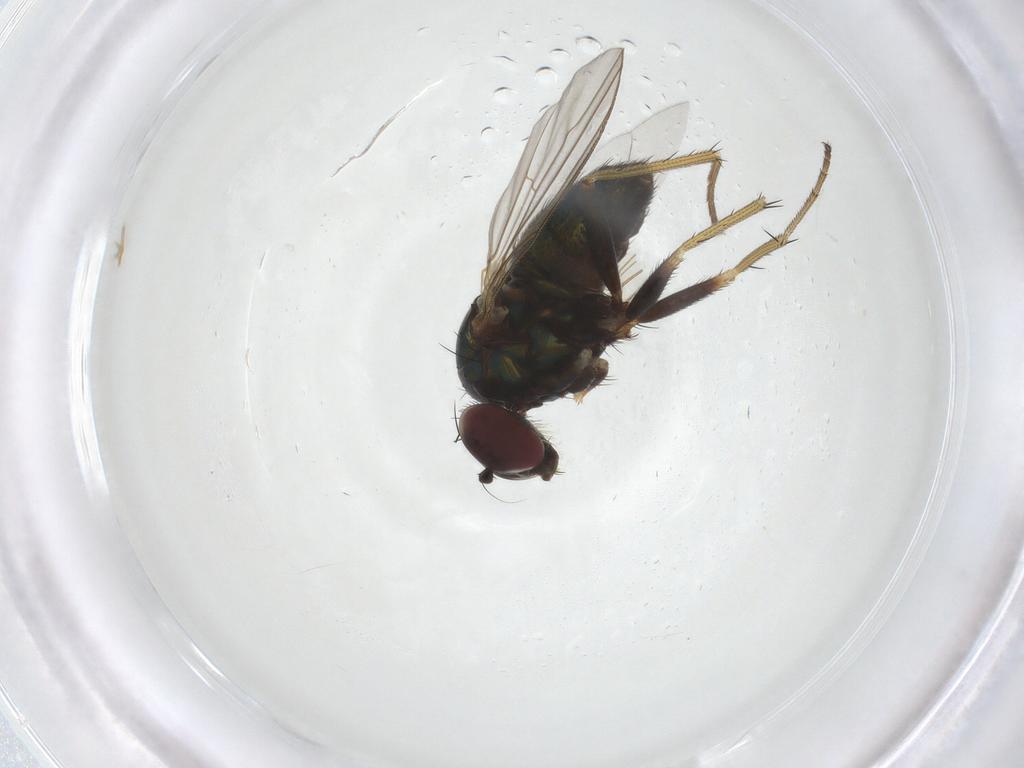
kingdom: Animalia
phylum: Arthropoda
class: Insecta
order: Diptera
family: Dolichopodidae
